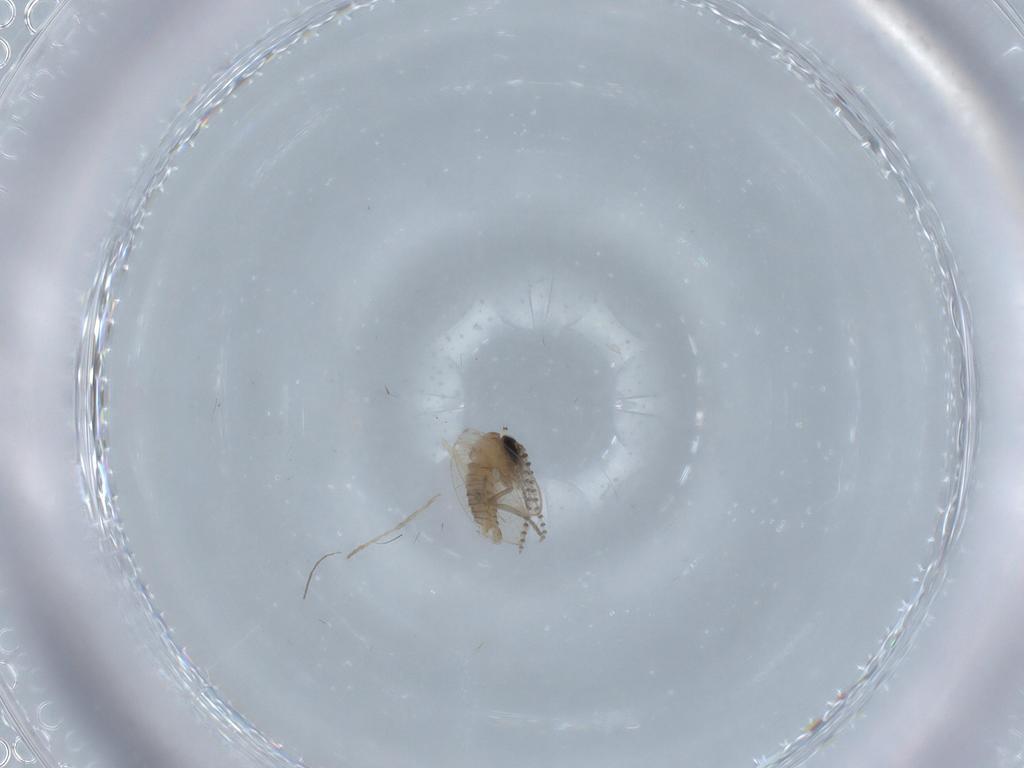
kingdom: Animalia
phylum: Arthropoda
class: Insecta
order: Diptera
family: Cecidomyiidae
